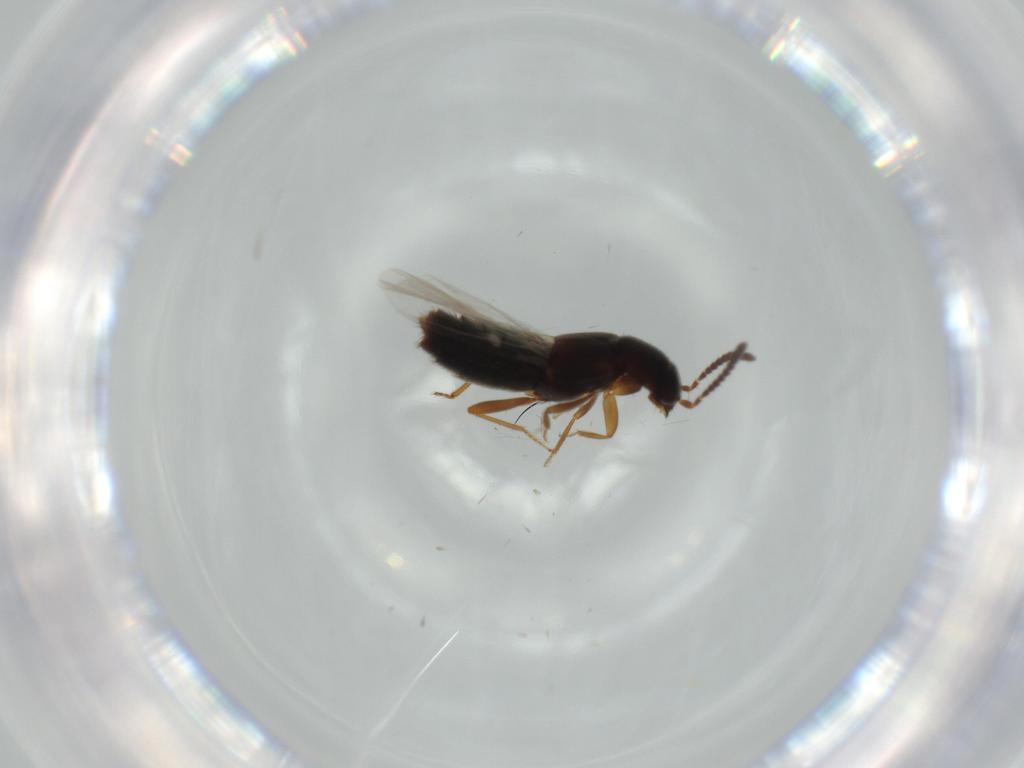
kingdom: Animalia
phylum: Arthropoda
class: Insecta
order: Coleoptera
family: Chrysomelidae
